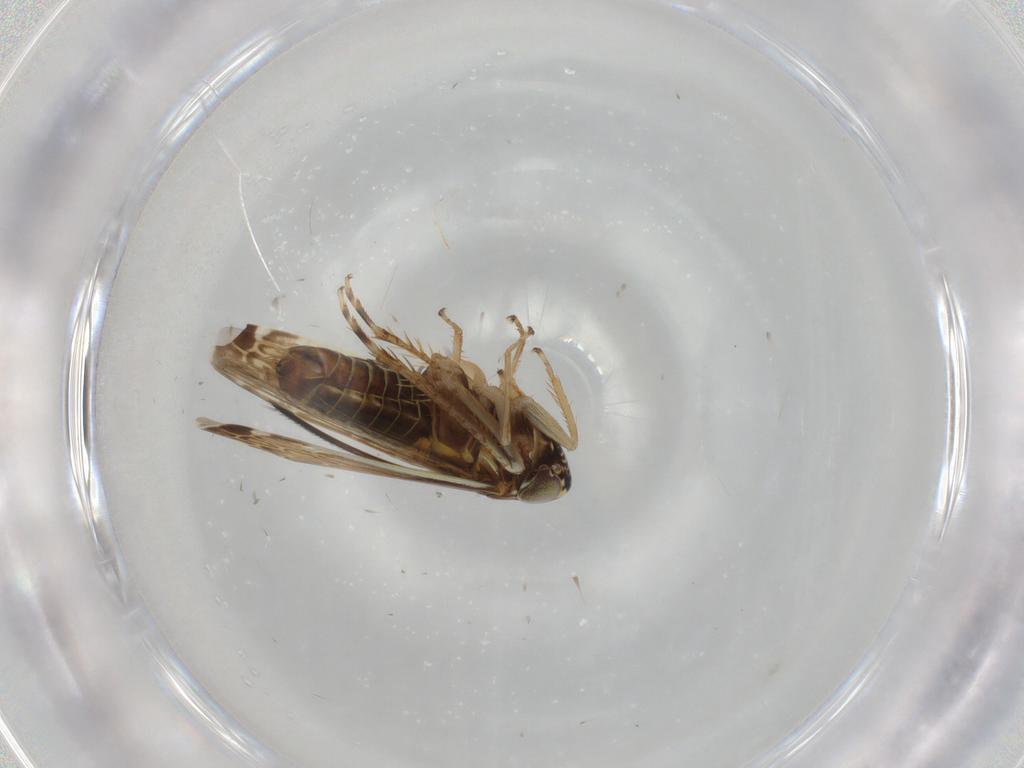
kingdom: Animalia
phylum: Arthropoda
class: Insecta
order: Hemiptera
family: Cicadellidae
